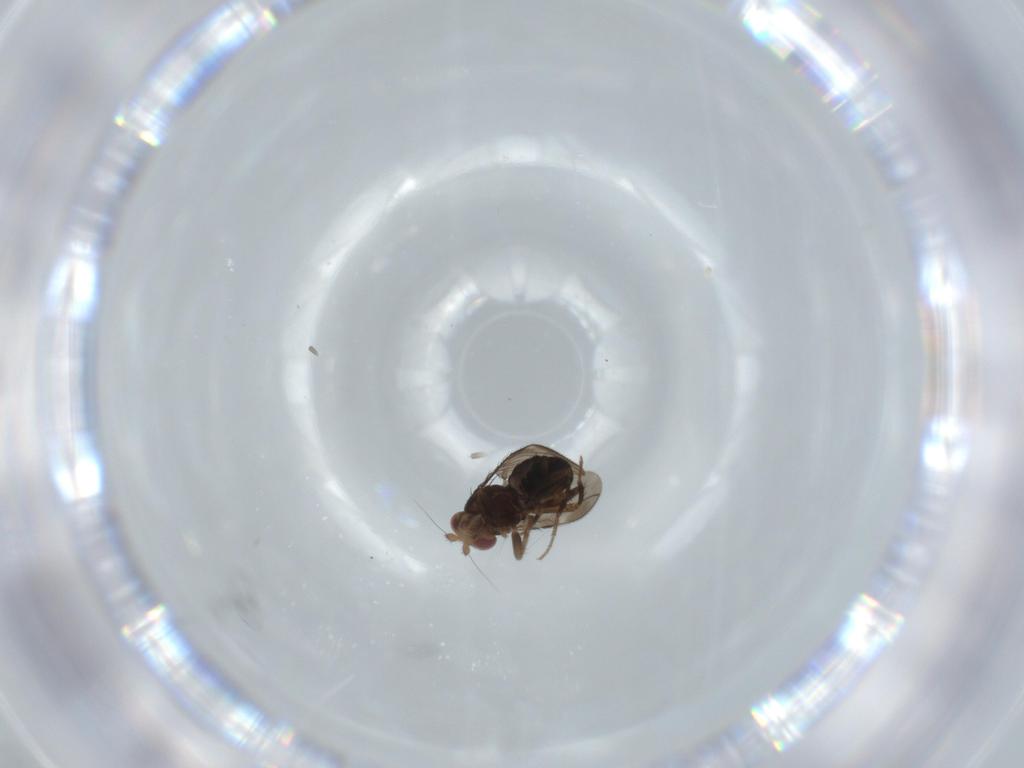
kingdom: Animalia
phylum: Arthropoda
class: Insecta
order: Diptera
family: Sphaeroceridae
